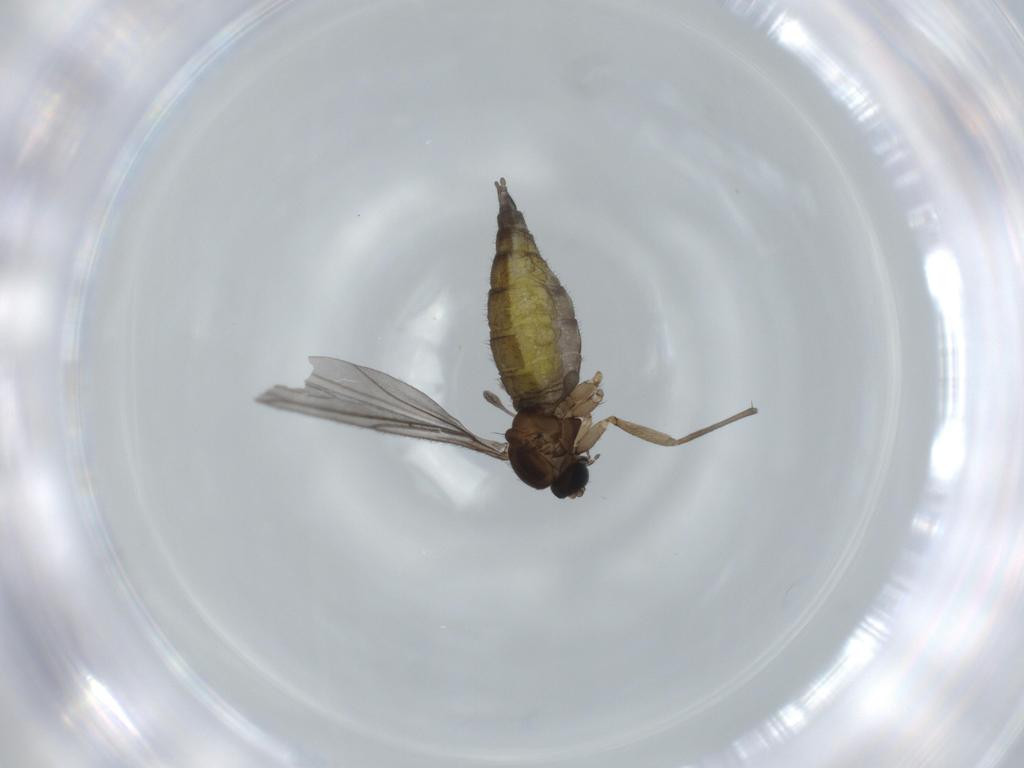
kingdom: Animalia
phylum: Arthropoda
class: Insecta
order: Diptera
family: Sciaridae
